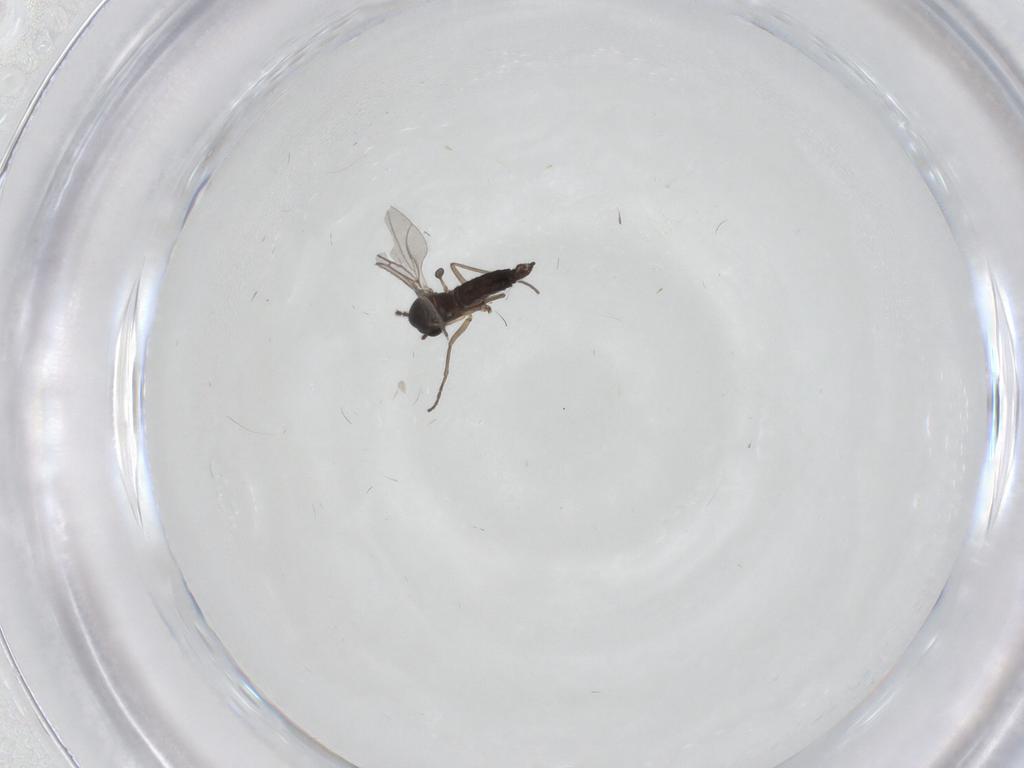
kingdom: Animalia
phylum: Arthropoda
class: Insecta
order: Diptera
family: Sciaridae
